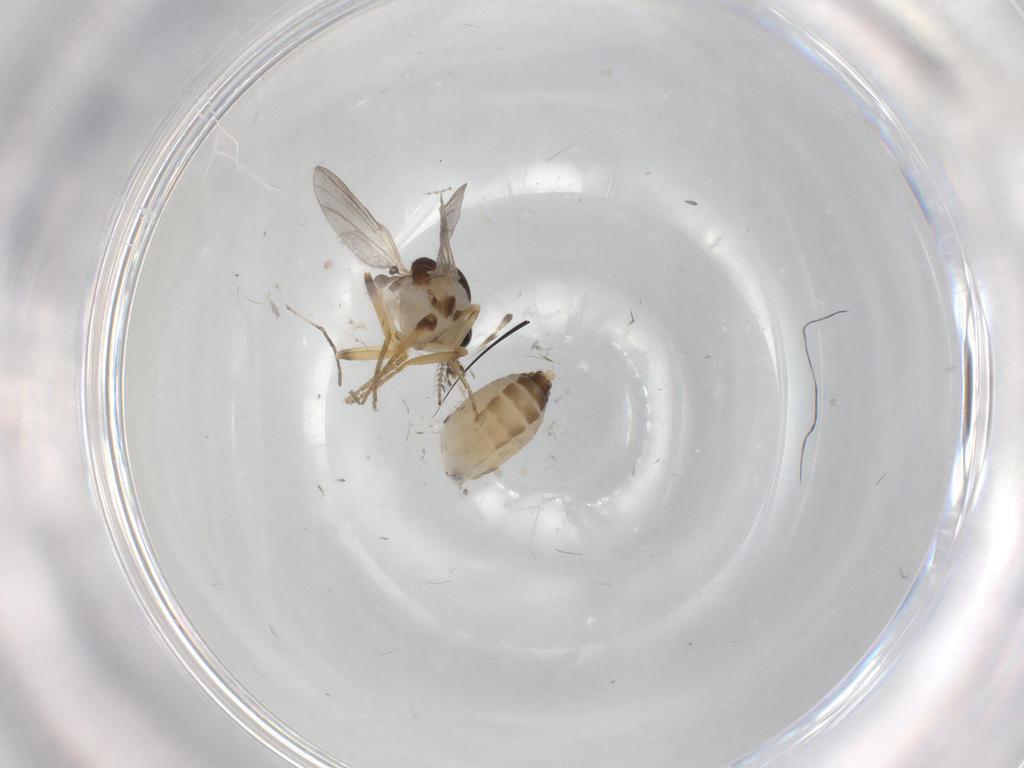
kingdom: Animalia
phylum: Arthropoda
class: Insecta
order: Diptera
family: Ceratopogonidae
